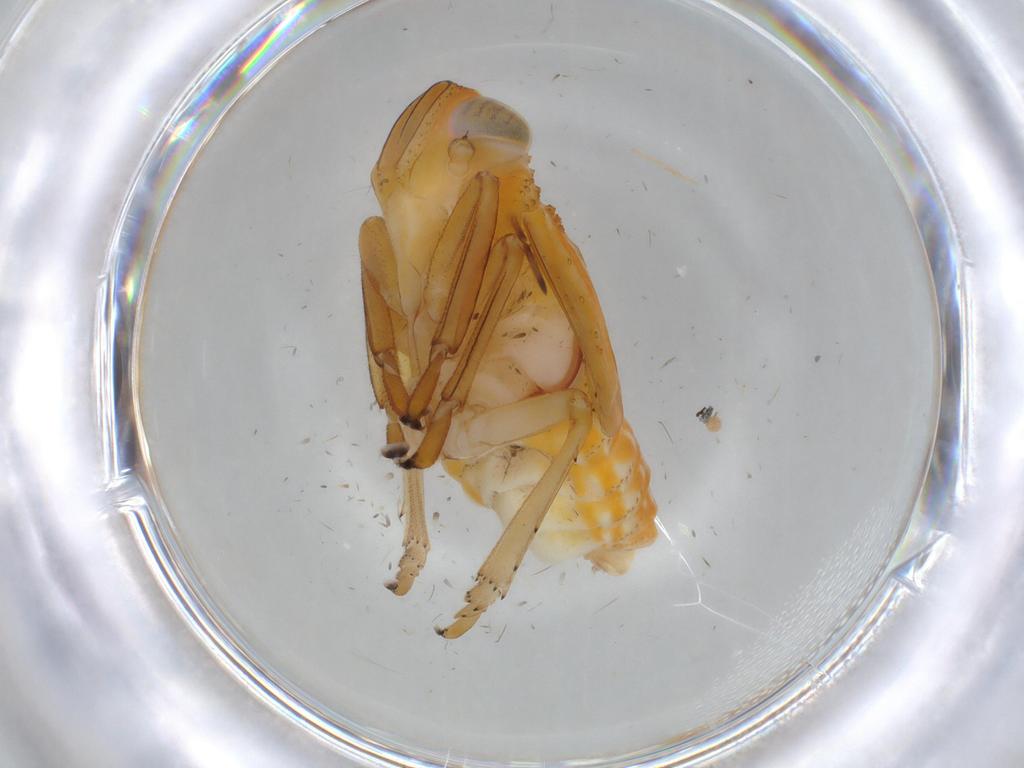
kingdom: Animalia
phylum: Arthropoda
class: Insecta
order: Hemiptera
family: Issidae
